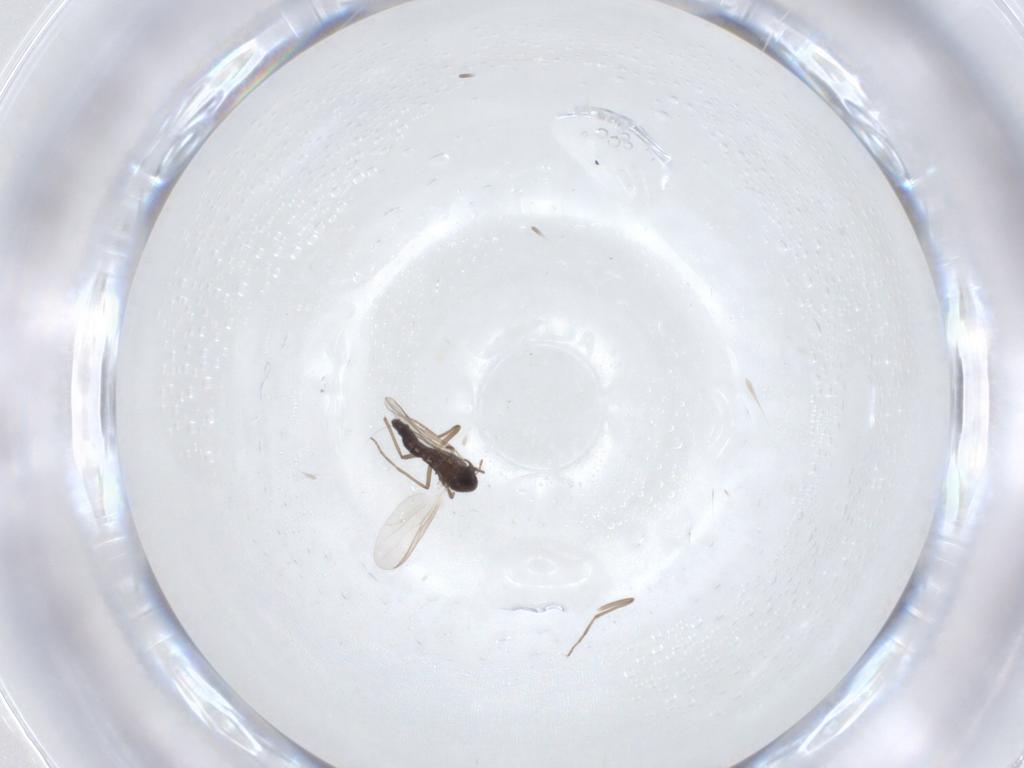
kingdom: Animalia
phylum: Arthropoda
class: Insecta
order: Diptera
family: Chironomidae
